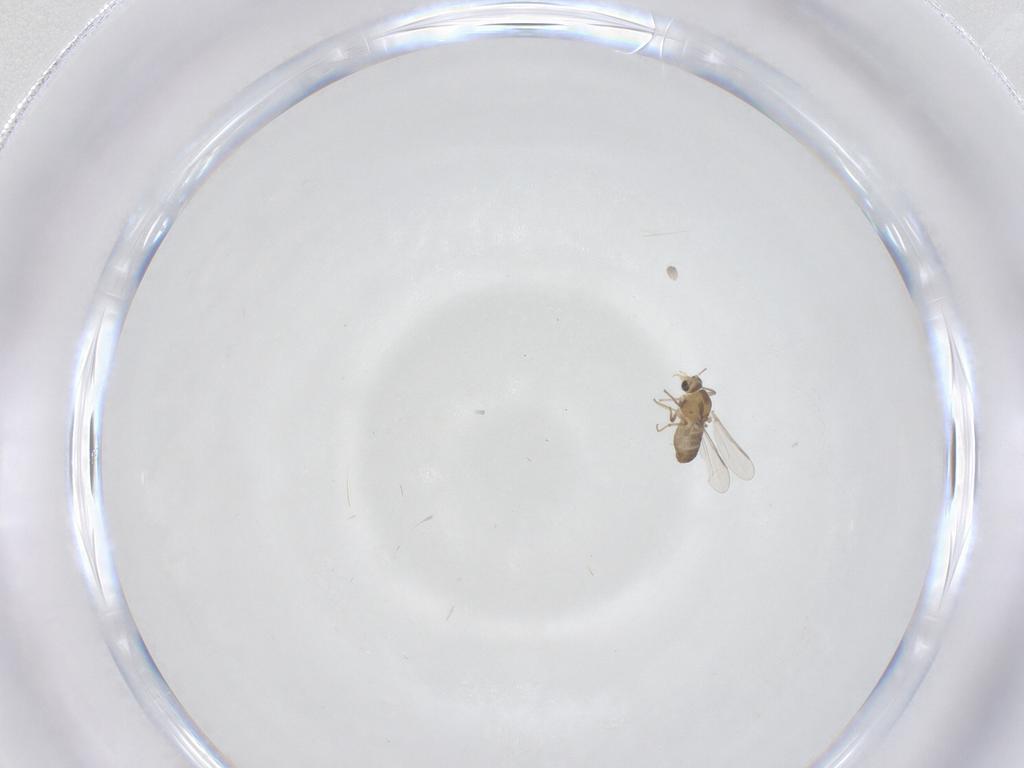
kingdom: Animalia
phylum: Arthropoda
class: Insecta
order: Diptera
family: Chironomidae
